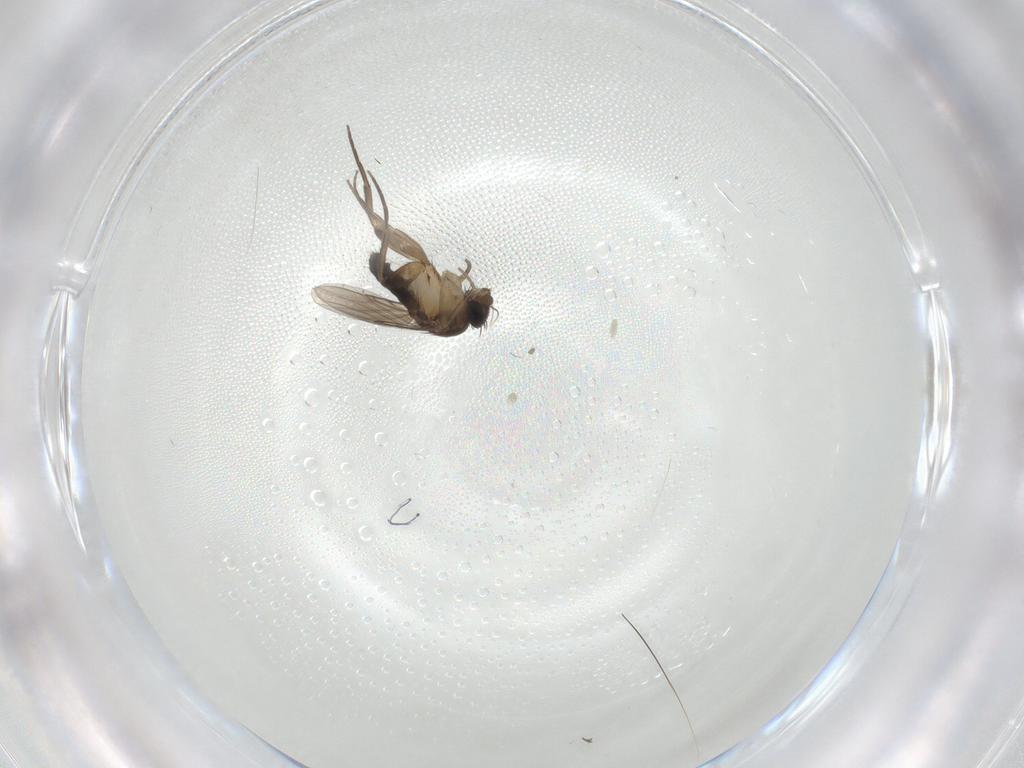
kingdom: Animalia
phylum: Arthropoda
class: Insecta
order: Diptera
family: Phoridae
